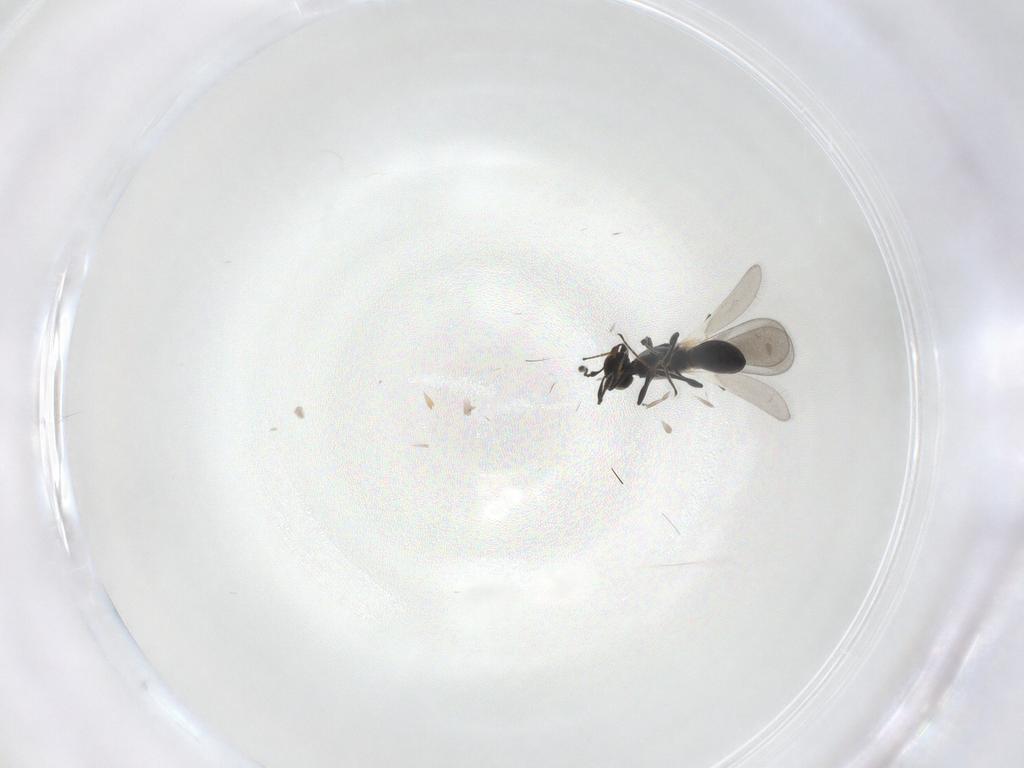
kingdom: Animalia
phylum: Arthropoda
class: Insecta
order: Hymenoptera
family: Platygastridae
